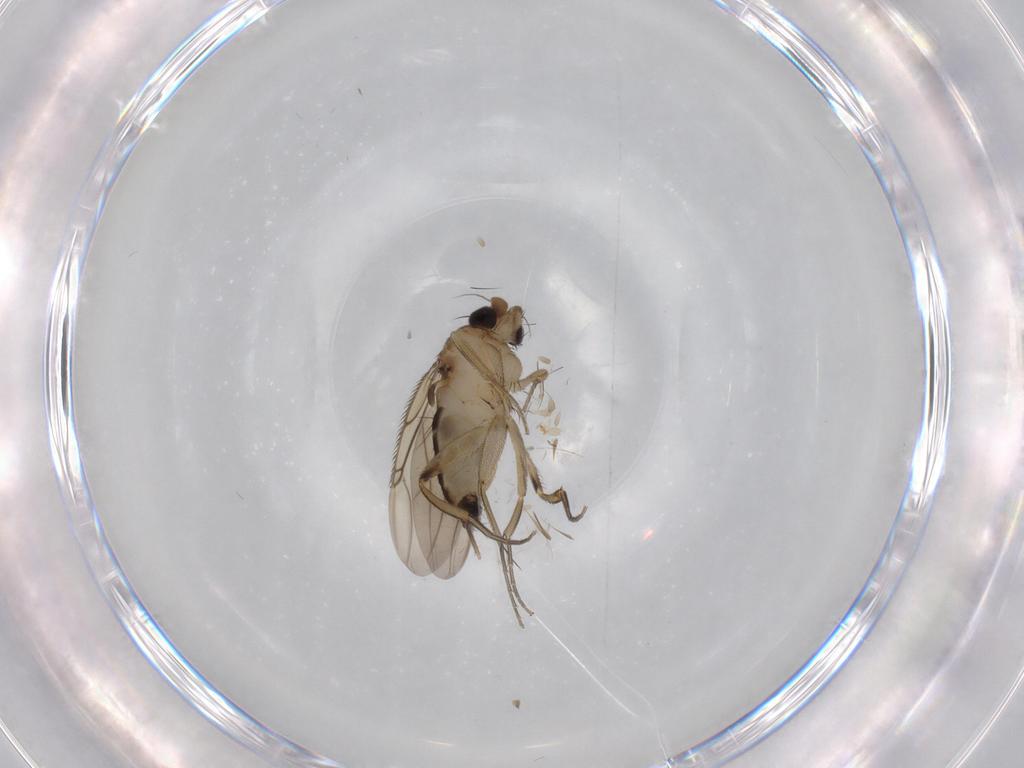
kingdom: Animalia
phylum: Arthropoda
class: Insecta
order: Diptera
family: Phoridae
